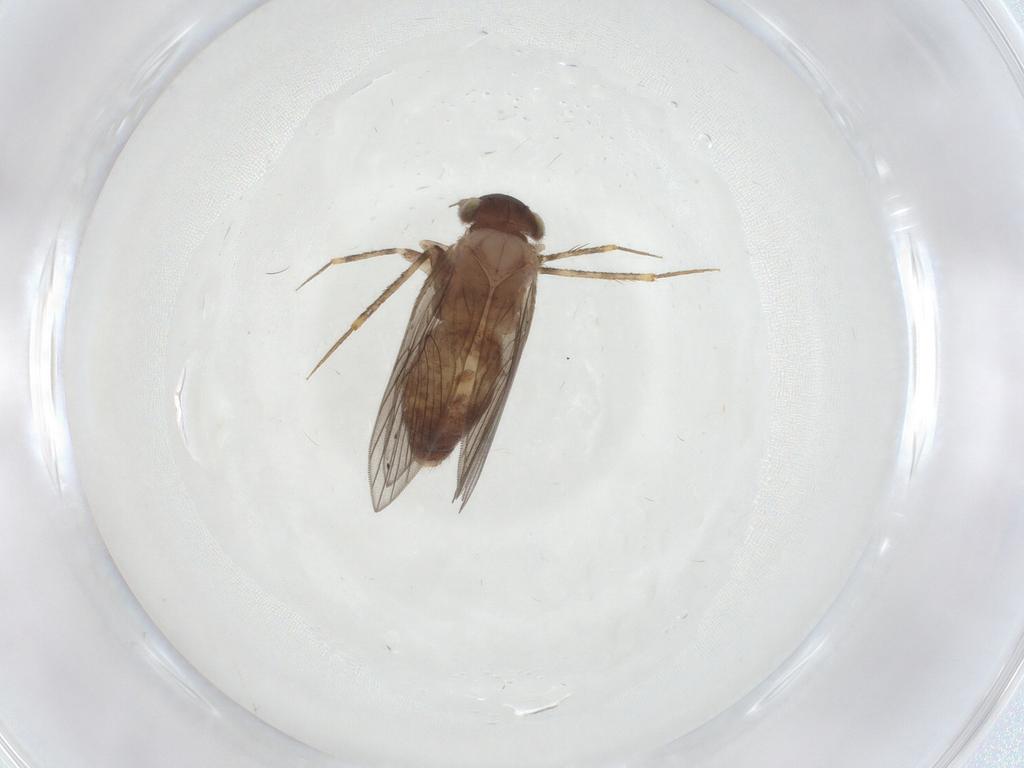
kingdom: Animalia
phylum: Arthropoda
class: Insecta
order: Psocodea
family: Lepidopsocidae
